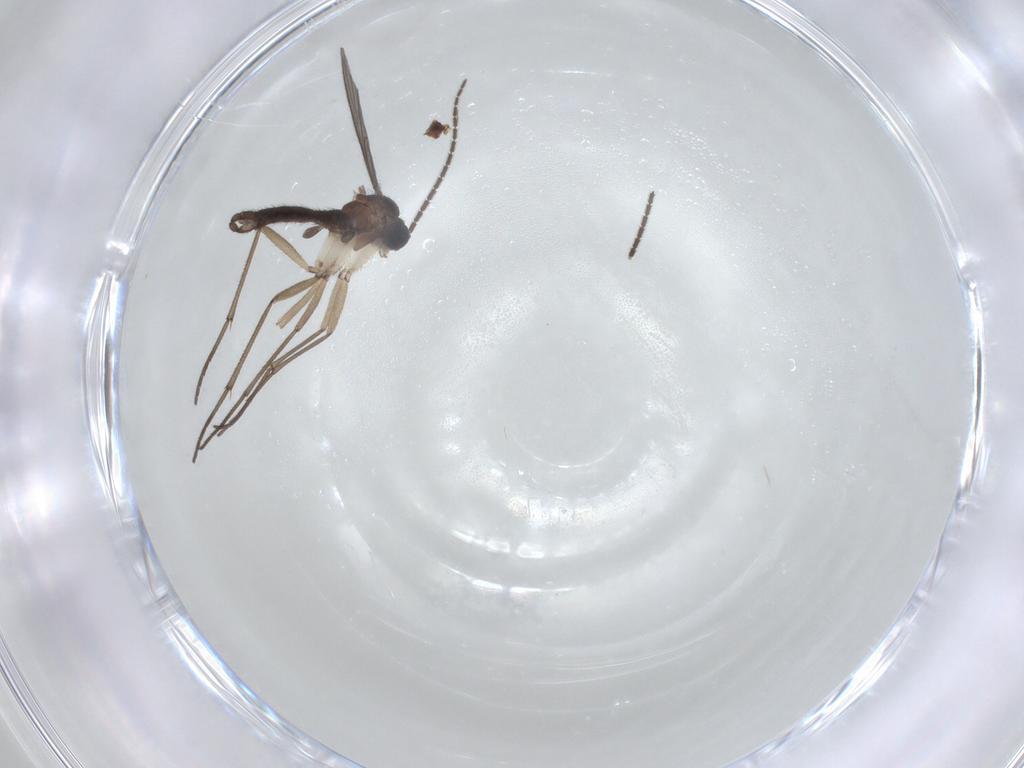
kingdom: Animalia
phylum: Arthropoda
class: Insecta
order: Diptera
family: Sciaridae
